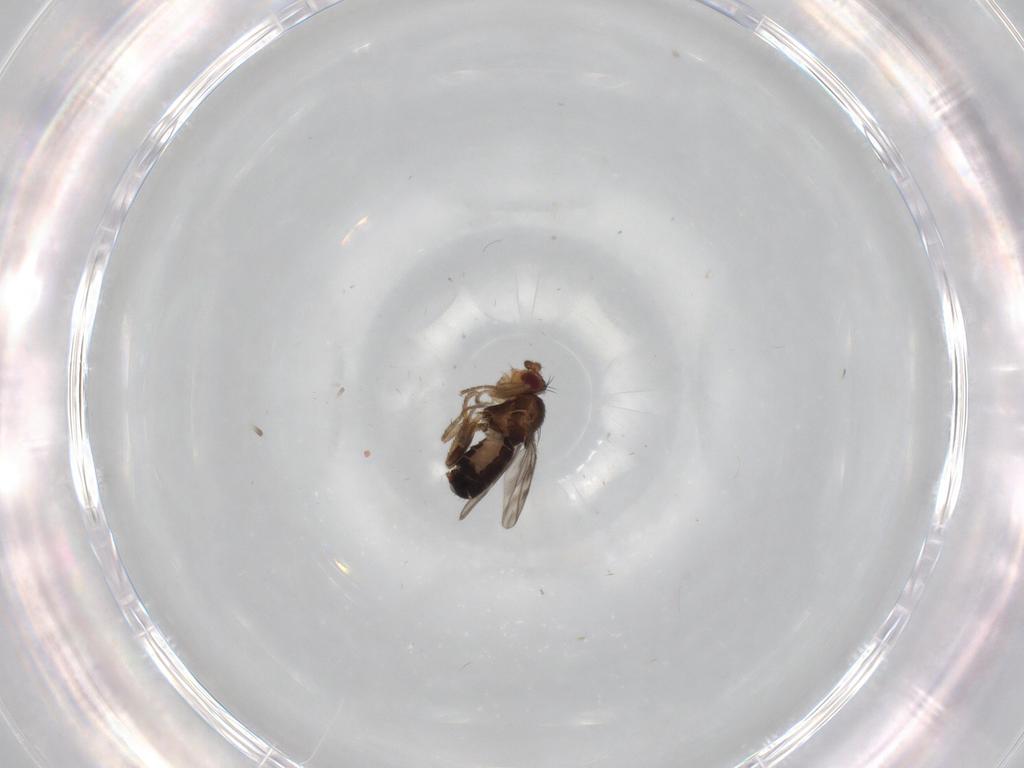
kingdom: Animalia
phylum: Arthropoda
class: Insecta
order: Diptera
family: Sphaeroceridae
